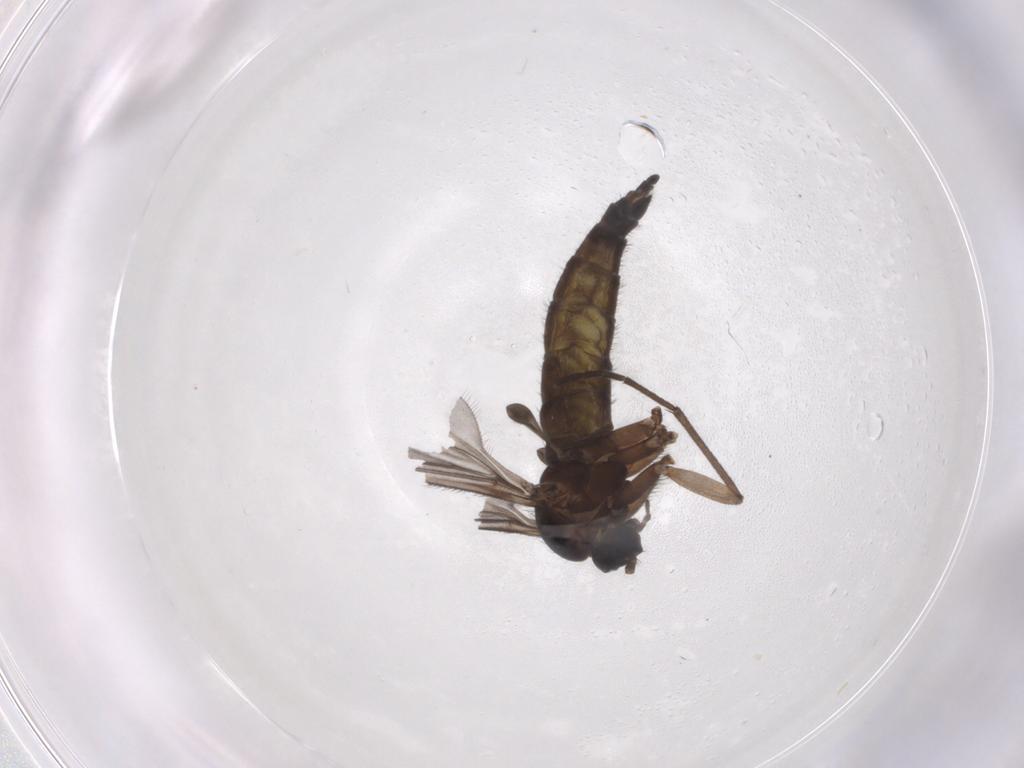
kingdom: Animalia
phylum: Arthropoda
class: Insecta
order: Diptera
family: Sciaridae
